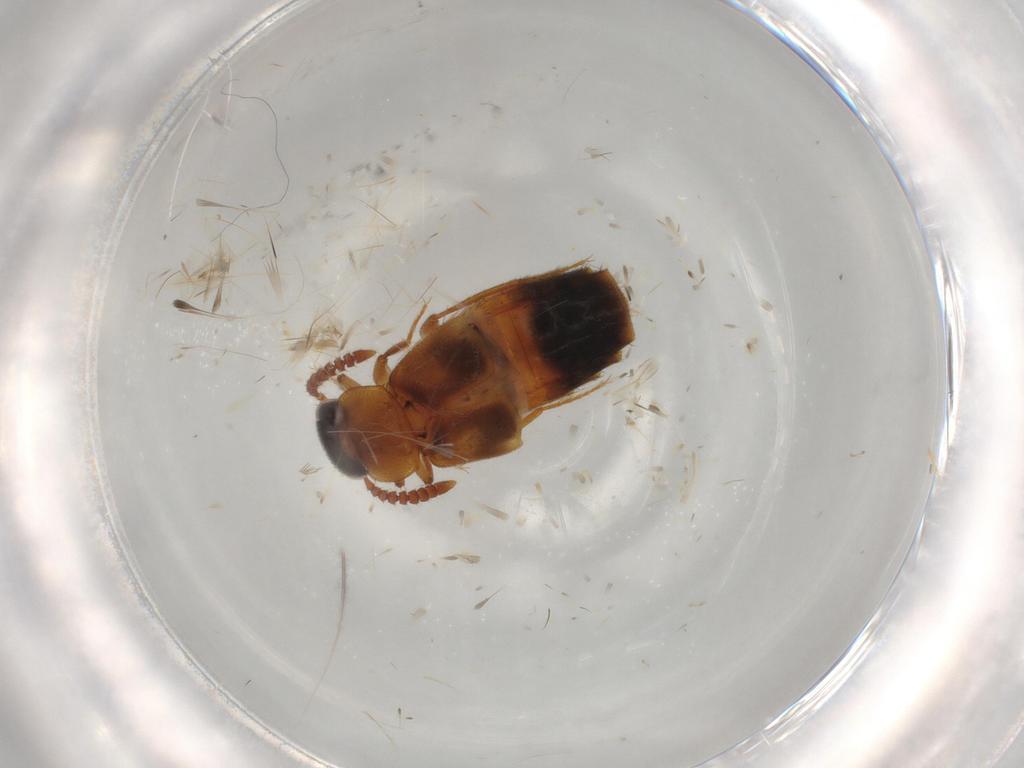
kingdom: Animalia
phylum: Arthropoda
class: Insecta
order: Coleoptera
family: Staphylinidae
